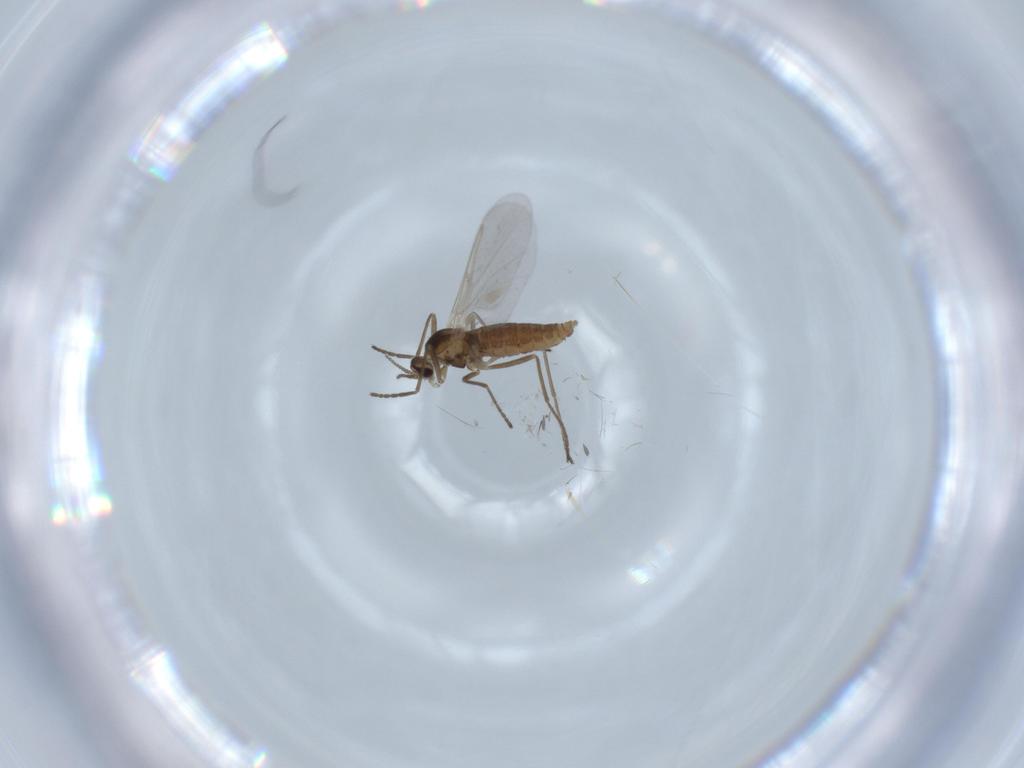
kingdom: Animalia
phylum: Arthropoda
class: Insecta
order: Diptera
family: Cecidomyiidae
